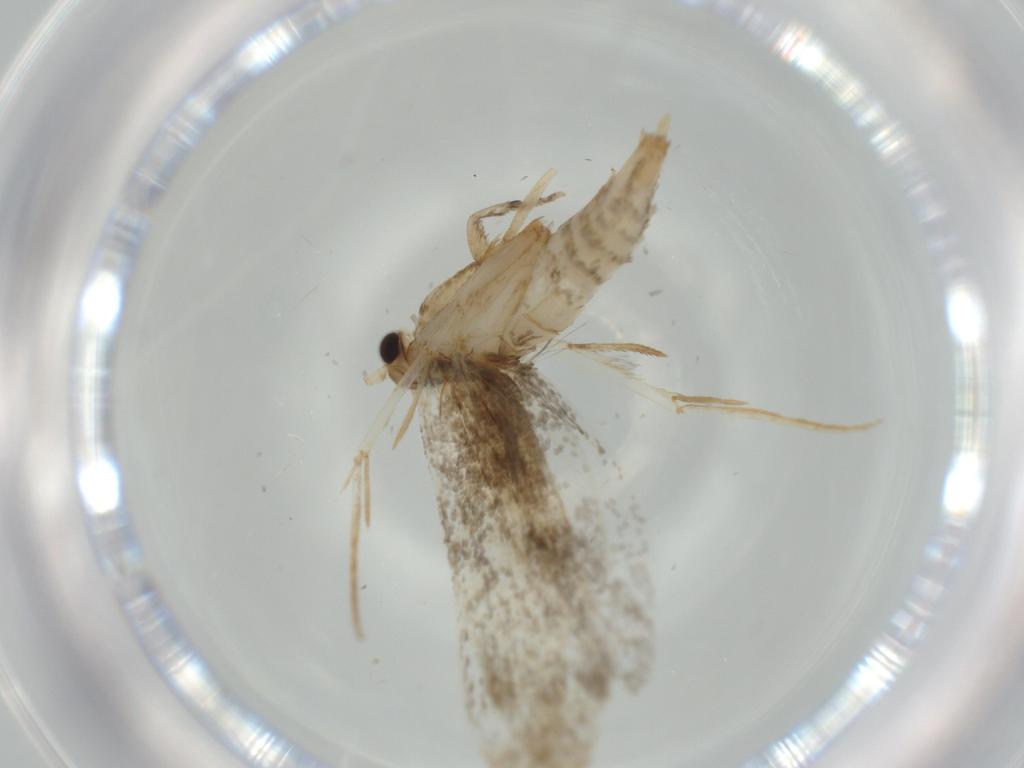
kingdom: Animalia
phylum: Arthropoda
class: Insecta
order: Lepidoptera
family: Tineidae
